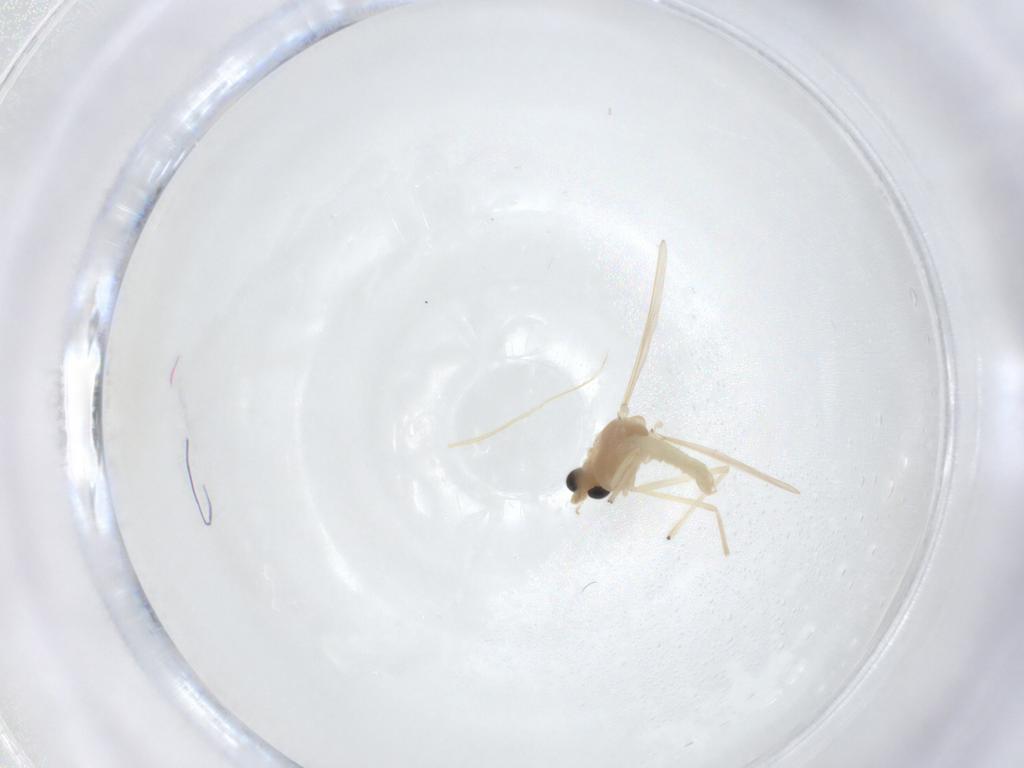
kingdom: Animalia
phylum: Arthropoda
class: Insecta
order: Diptera
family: Chironomidae
